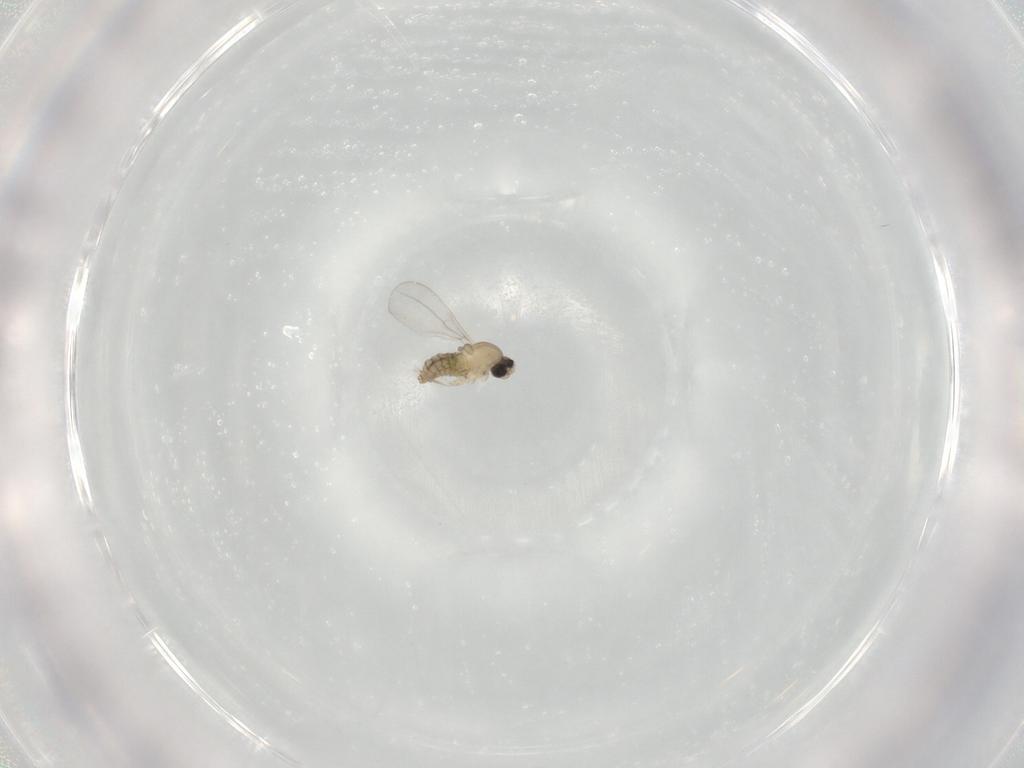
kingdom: Animalia
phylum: Arthropoda
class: Insecta
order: Diptera
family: Cecidomyiidae
